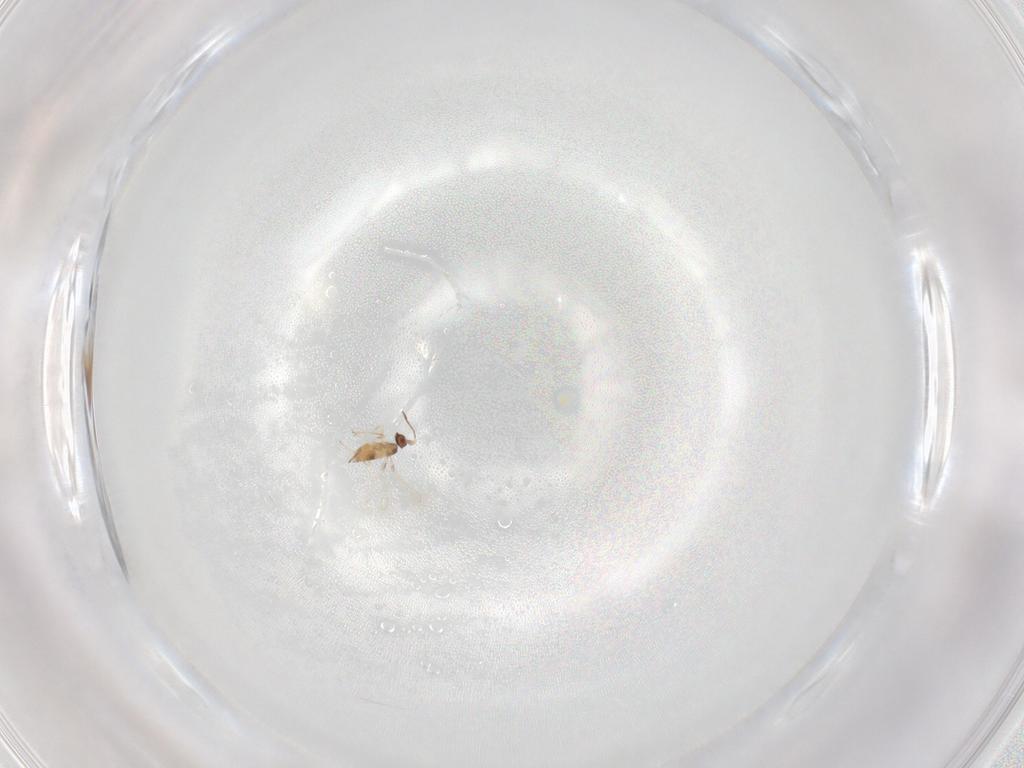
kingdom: Animalia
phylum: Arthropoda
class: Insecta
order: Hymenoptera
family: Mymaridae
